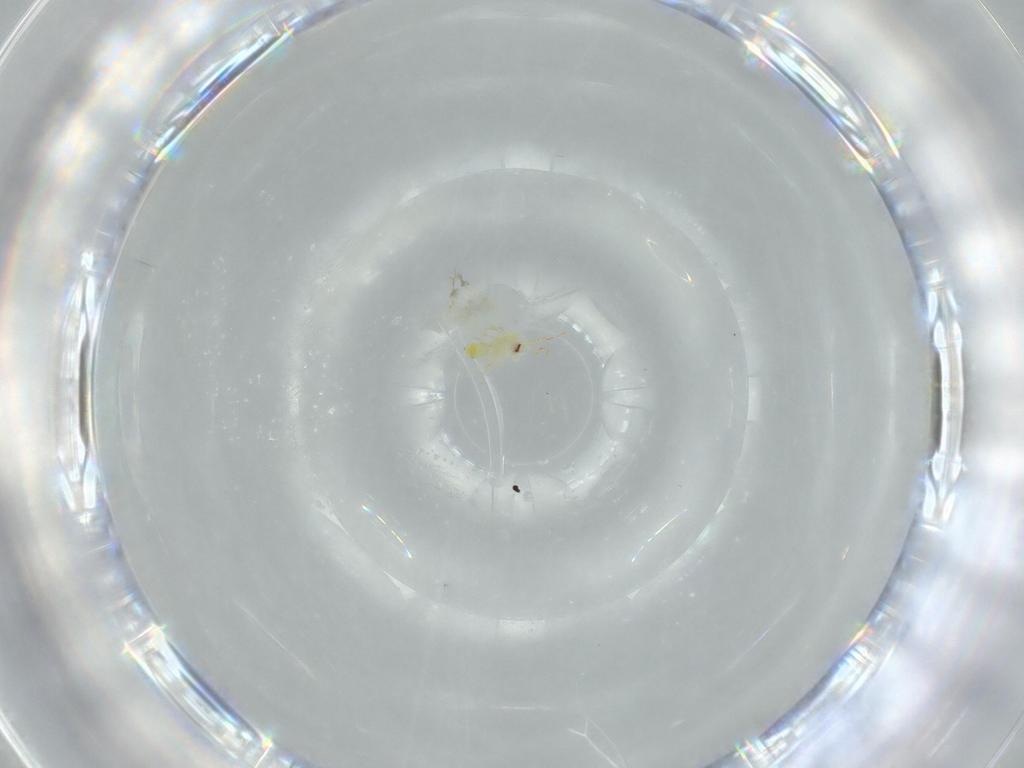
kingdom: Animalia
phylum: Arthropoda
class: Insecta
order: Hemiptera
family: Aleyrodidae
